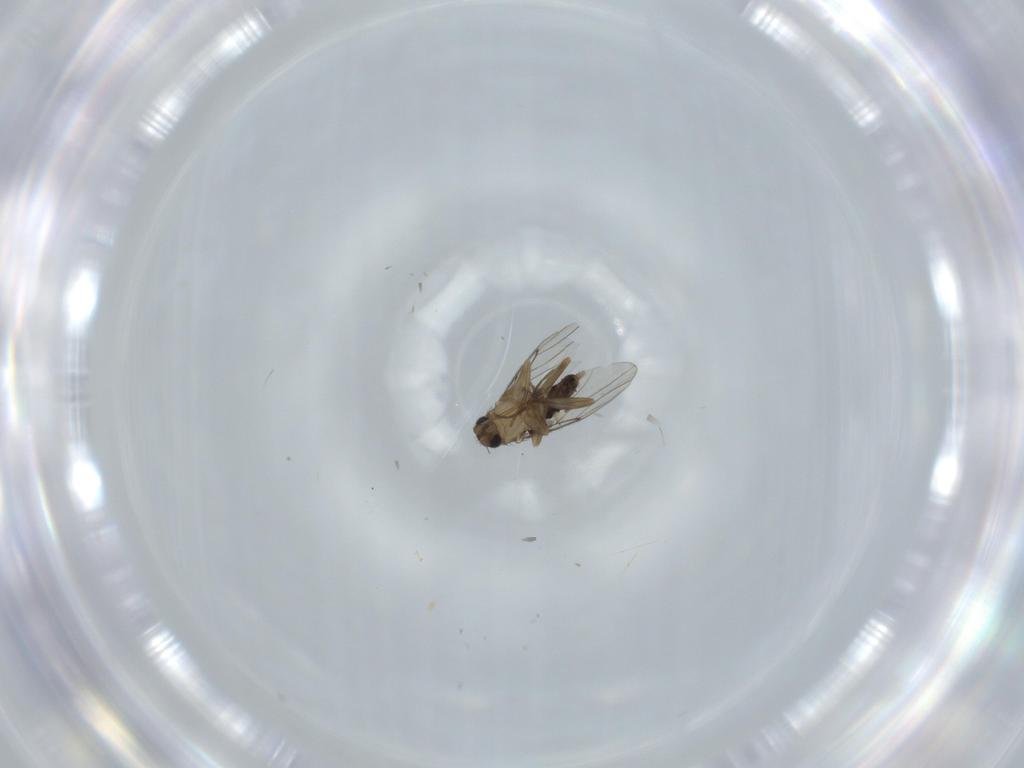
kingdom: Animalia
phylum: Arthropoda
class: Insecta
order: Diptera
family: Phoridae
